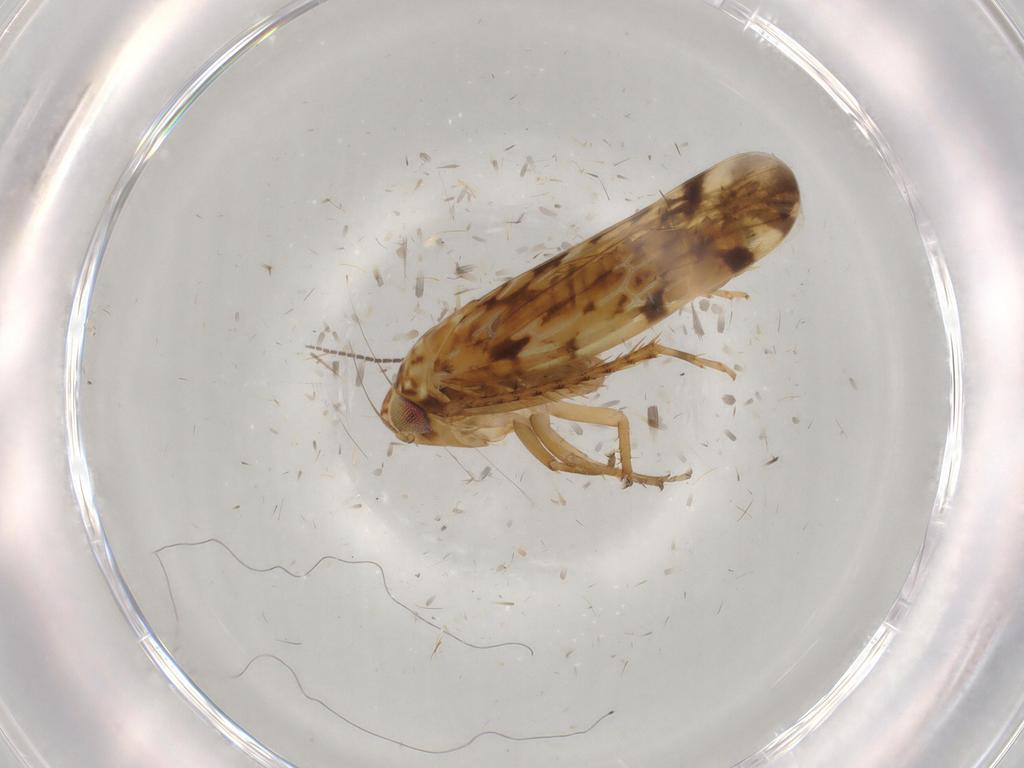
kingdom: Animalia
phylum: Arthropoda
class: Insecta
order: Hemiptera
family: Cicadellidae
